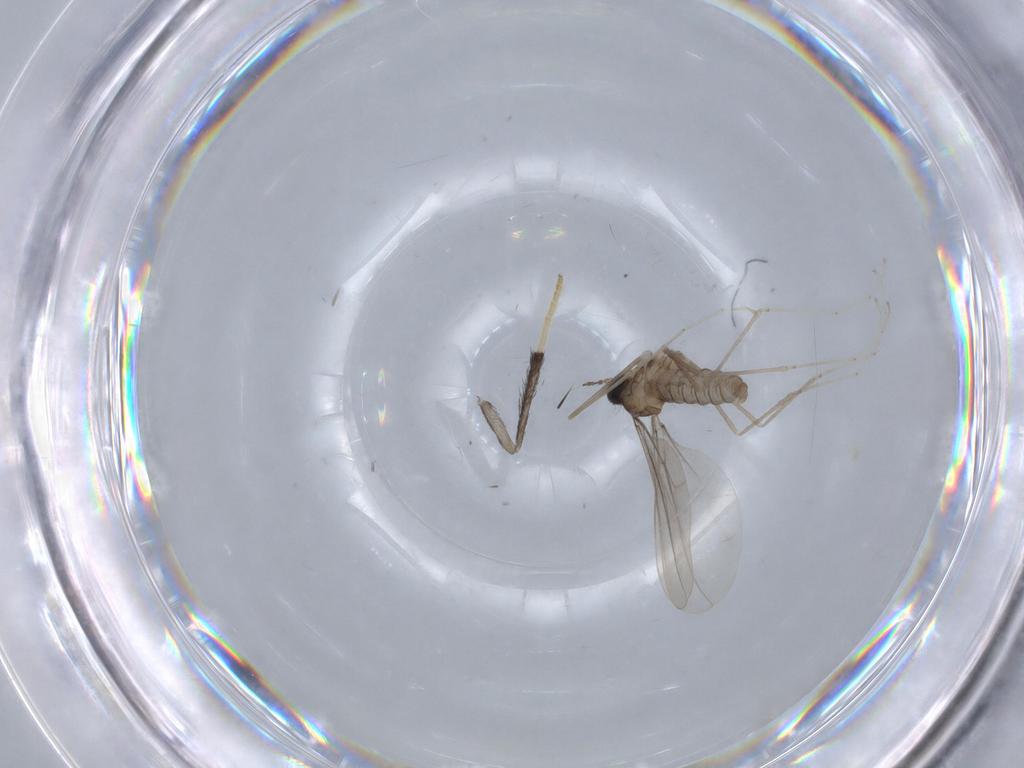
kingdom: Animalia
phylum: Arthropoda
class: Insecta
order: Diptera
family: Psychodidae
